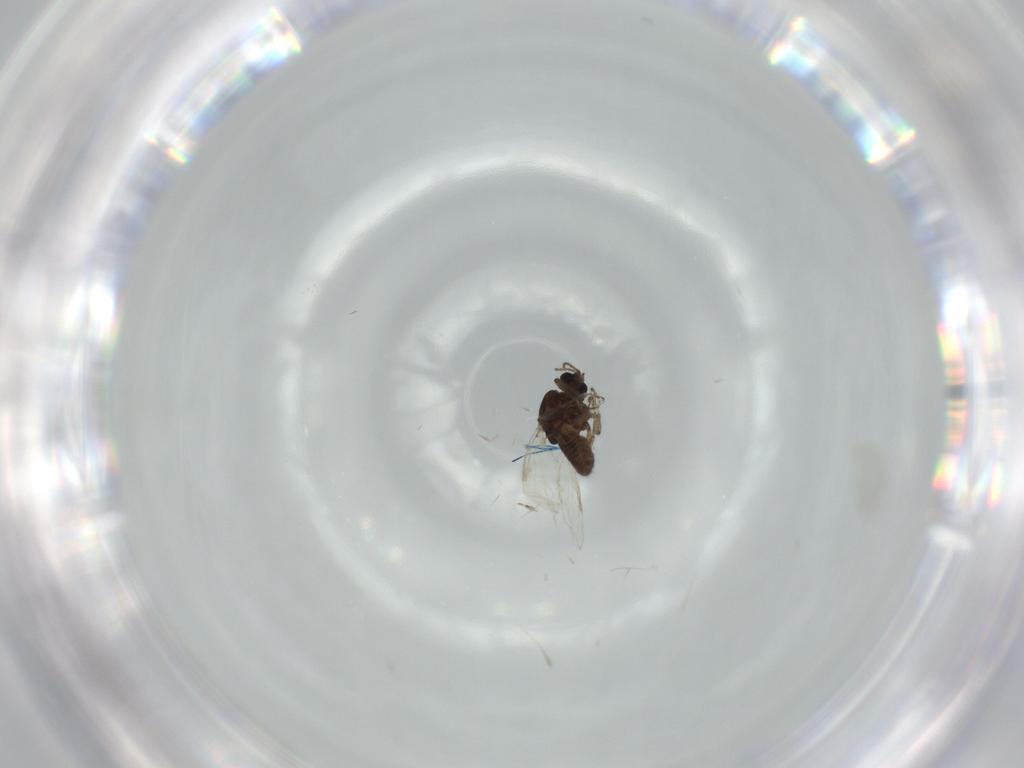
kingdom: Animalia
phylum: Arthropoda
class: Insecta
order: Diptera
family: Ceratopogonidae
